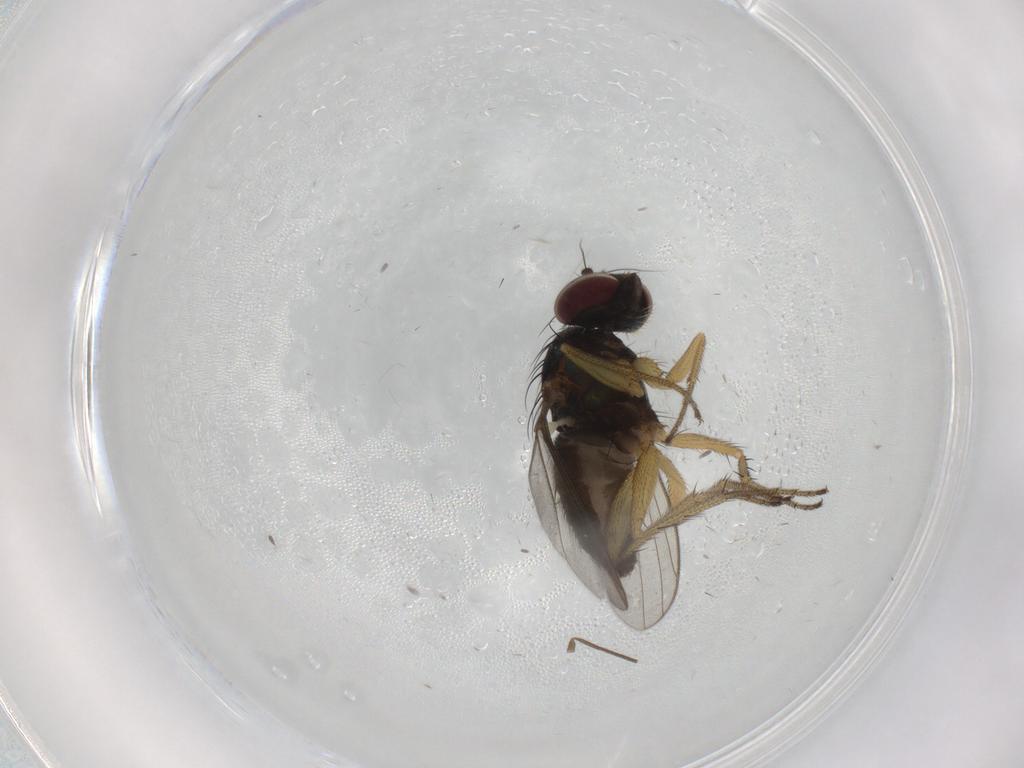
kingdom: Animalia
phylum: Arthropoda
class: Insecta
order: Diptera
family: Dolichopodidae
